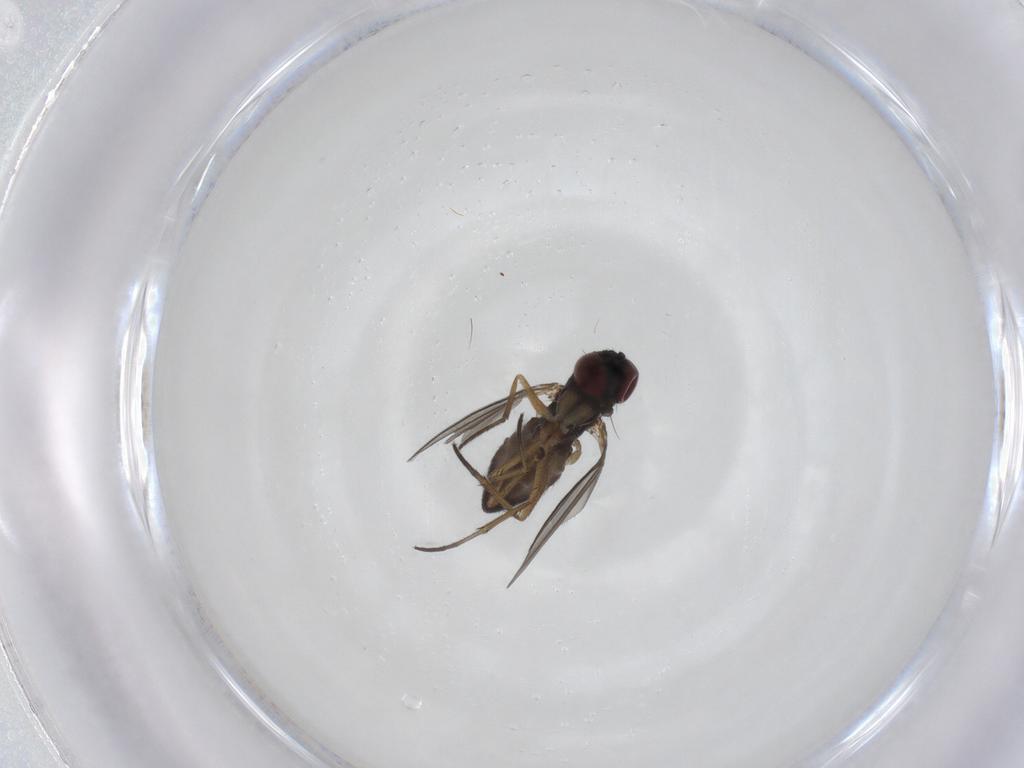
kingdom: Animalia
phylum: Arthropoda
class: Insecta
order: Diptera
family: Dolichopodidae
